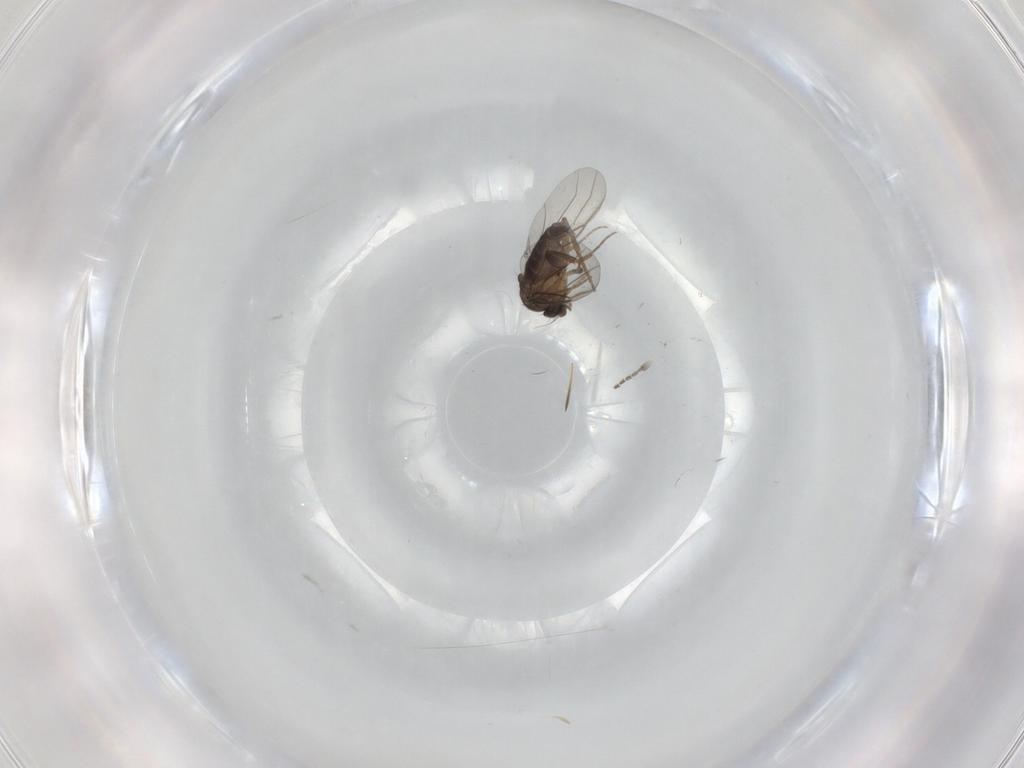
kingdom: Animalia
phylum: Arthropoda
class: Insecta
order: Diptera
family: Phoridae
